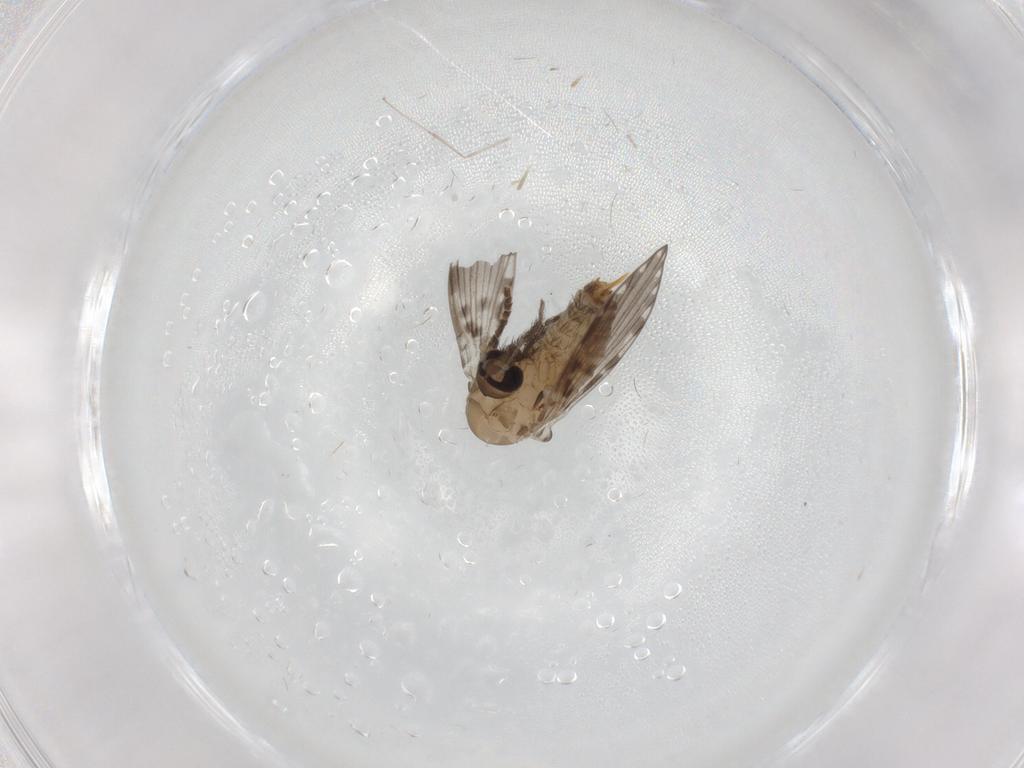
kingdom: Animalia
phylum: Arthropoda
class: Insecta
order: Diptera
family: Psychodidae
